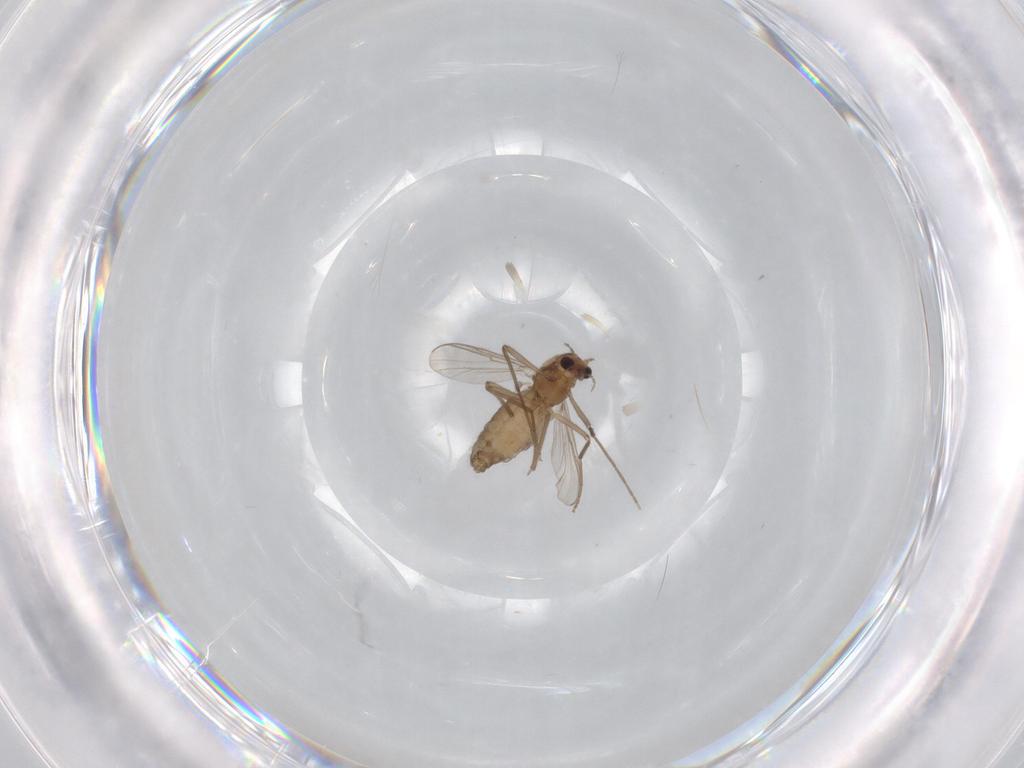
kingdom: Animalia
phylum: Arthropoda
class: Insecta
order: Diptera
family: Chironomidae
